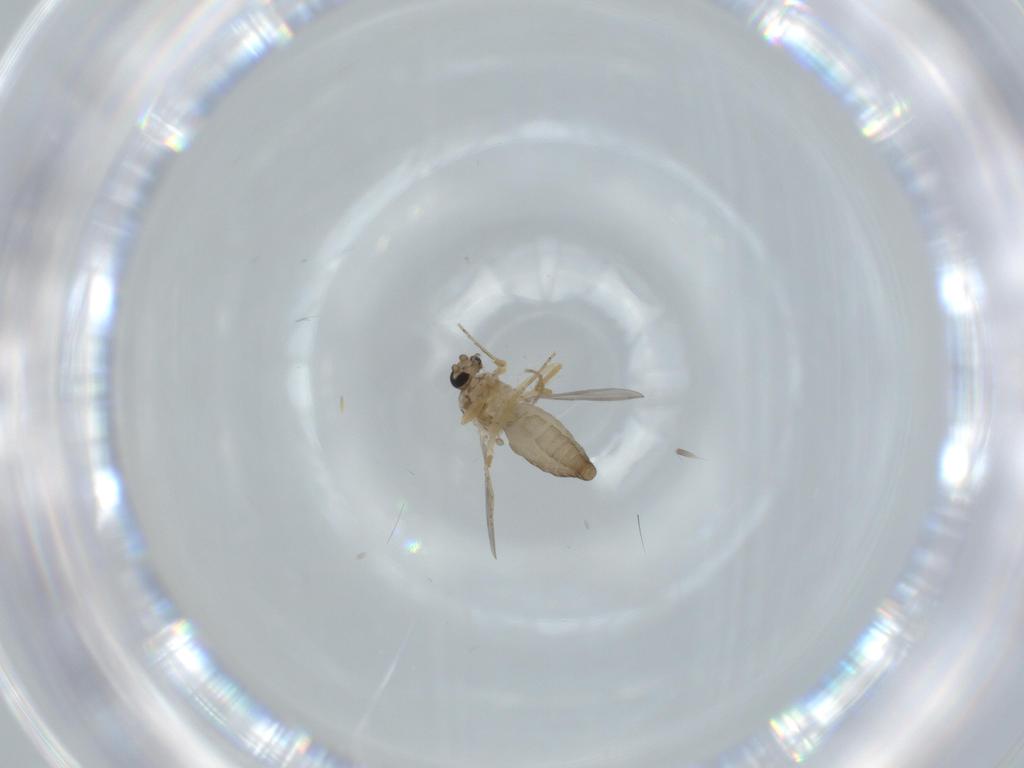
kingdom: Animalia
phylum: Arthropoda
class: Insecta
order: Diptera
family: Ceratopogonidae
